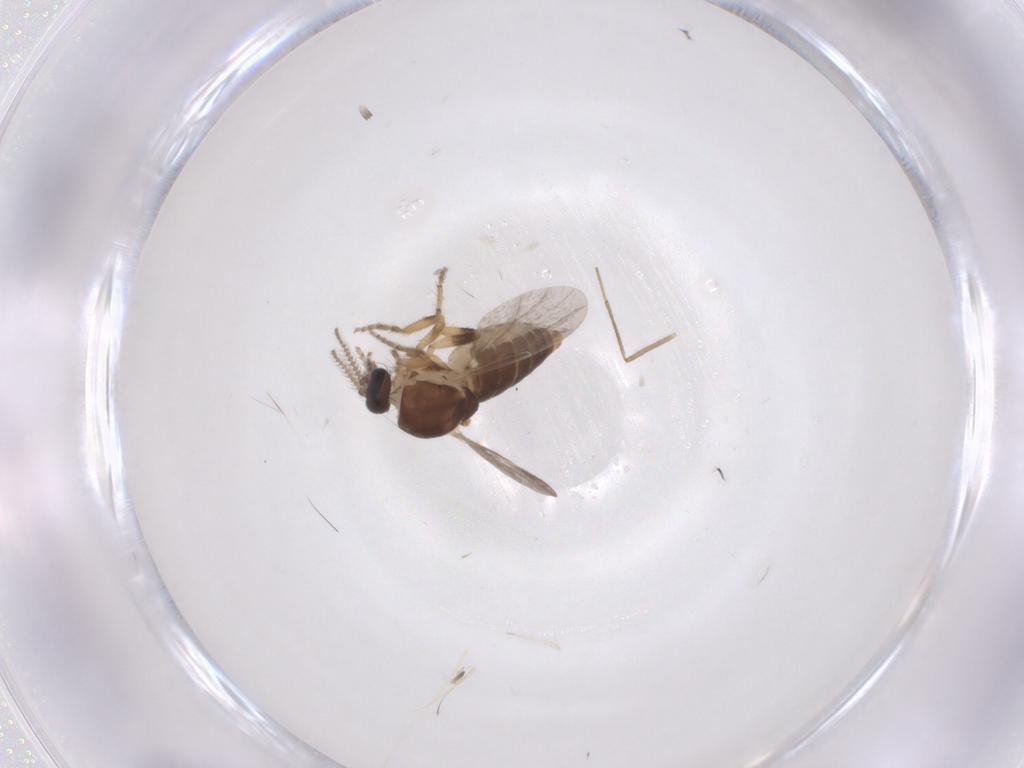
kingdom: Animalia
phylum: Arthropoda
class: Insecta
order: Diptera
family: Ceratopogonidae
